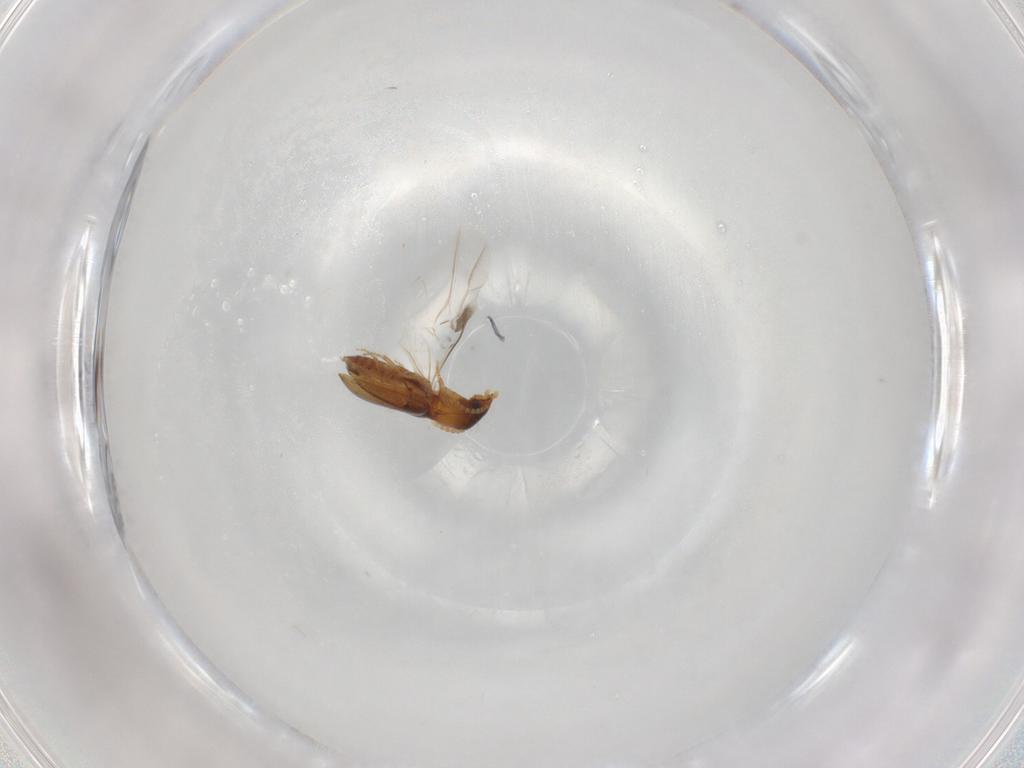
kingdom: Animalia
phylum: Arthropoda
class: Insecta
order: Coleoptera
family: Carabidae
